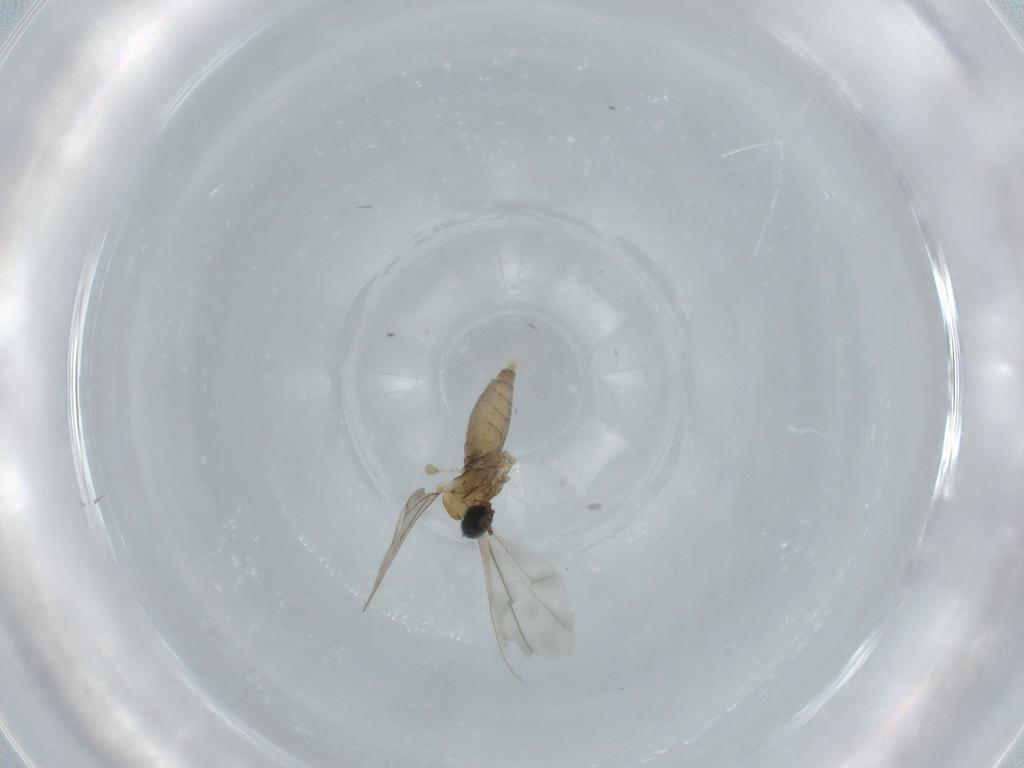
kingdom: Animalia
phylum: Arthropoda
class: Insecta
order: Diptera
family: Cecidomyiidae
